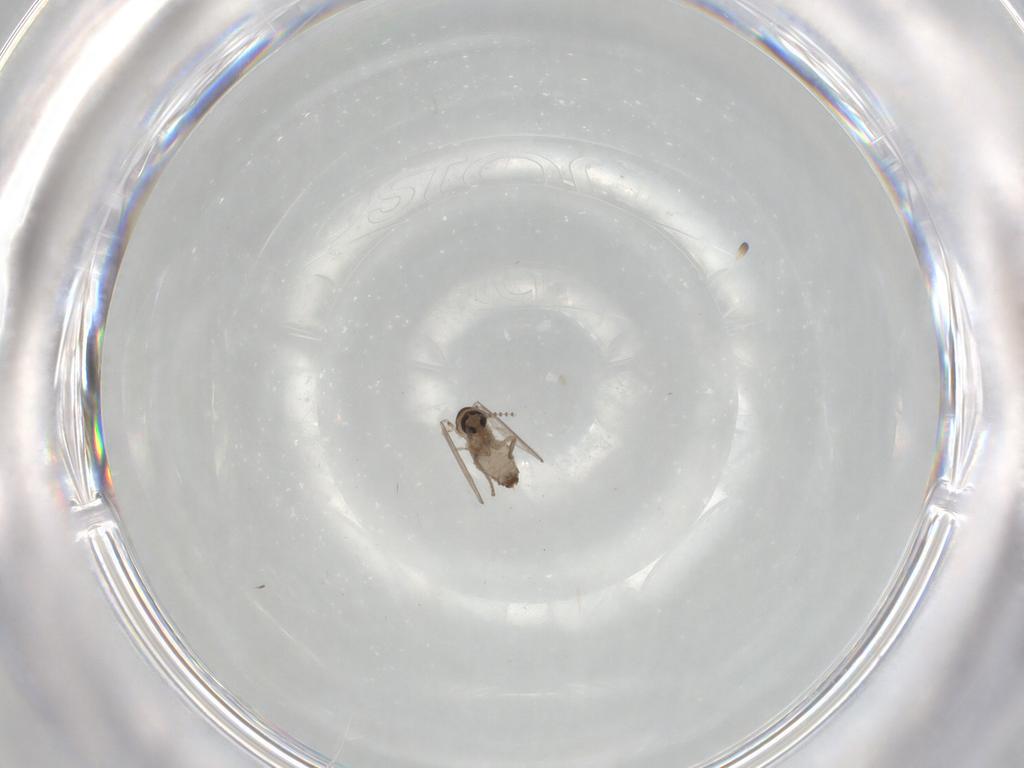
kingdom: Animalia
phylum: Arthropoda
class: Insecta
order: Diptera
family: Psychodidae
